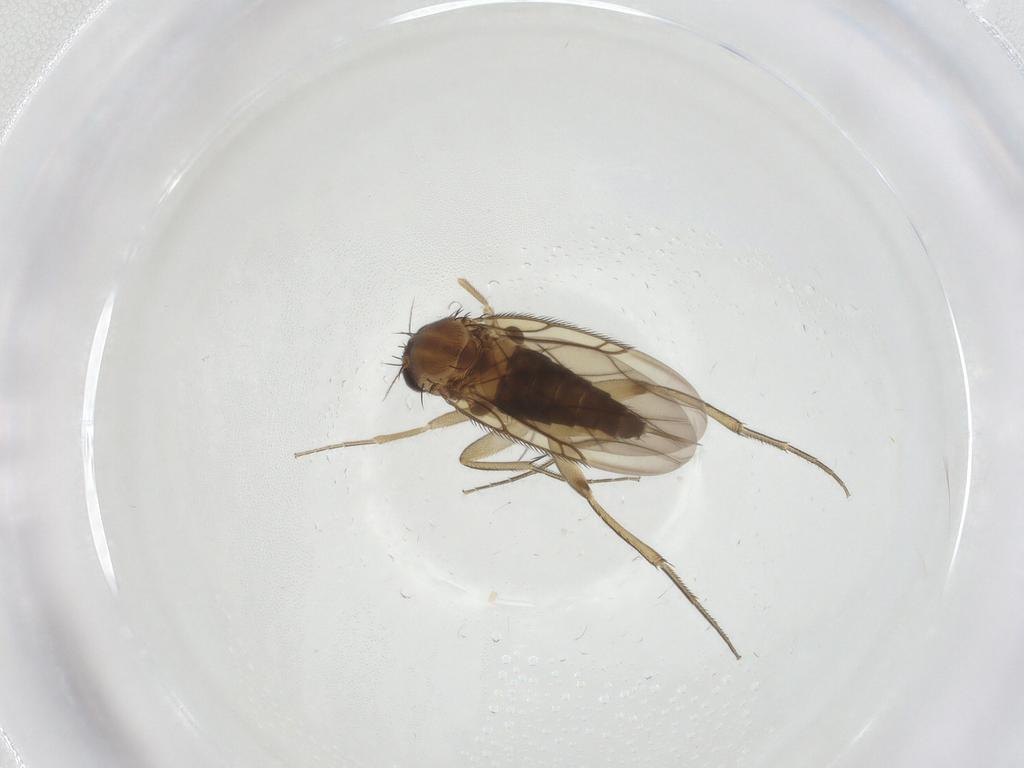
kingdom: Animalia
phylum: Arthropoda
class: Insecta
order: Diptera
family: Phoridae
